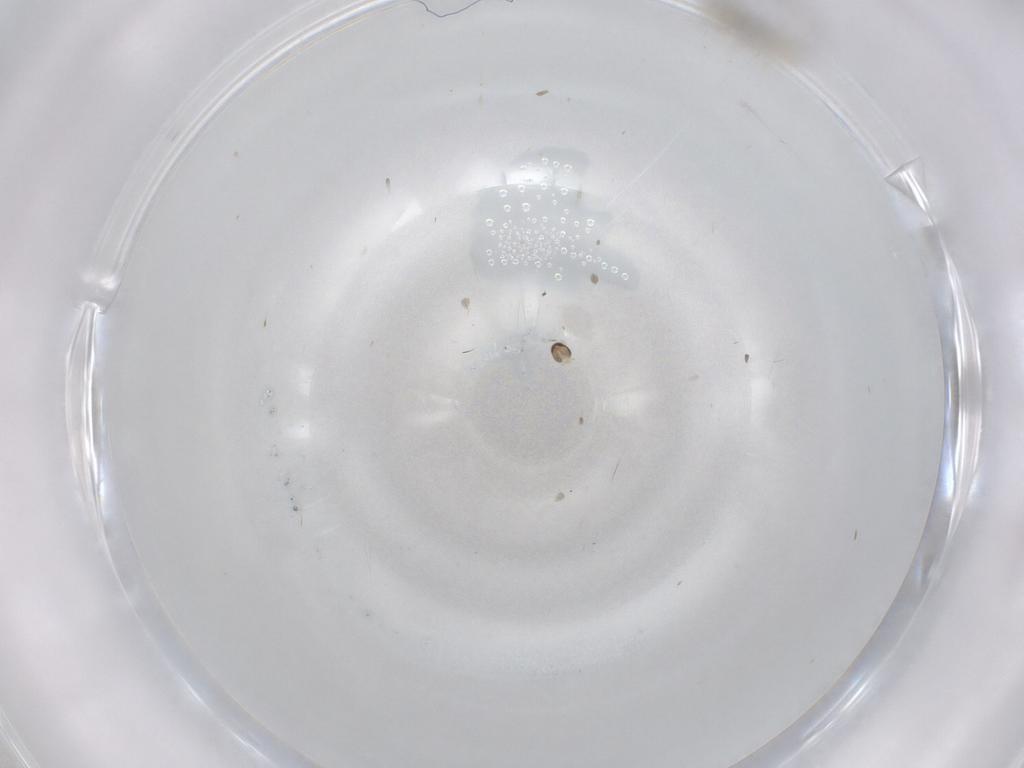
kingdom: Animalia
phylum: Arthropoda
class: Insecta
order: Diptera
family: Cecidomyiidae
